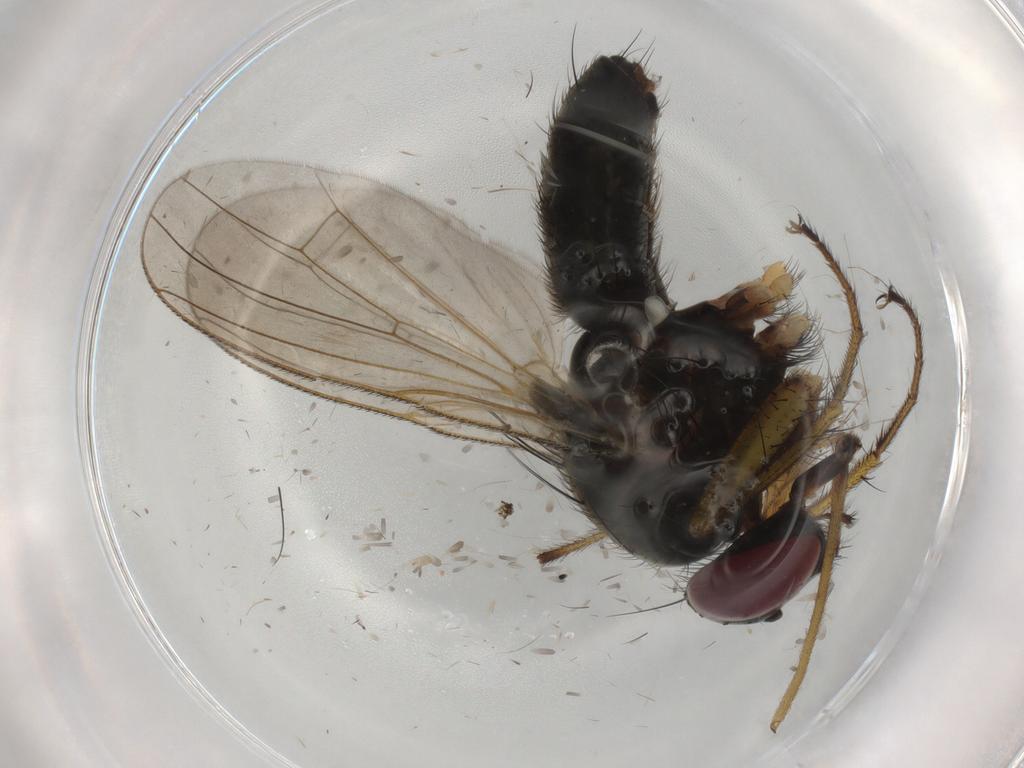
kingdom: Animalia
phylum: Arthropoda
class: Insecta
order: Diptera
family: Muscidae
